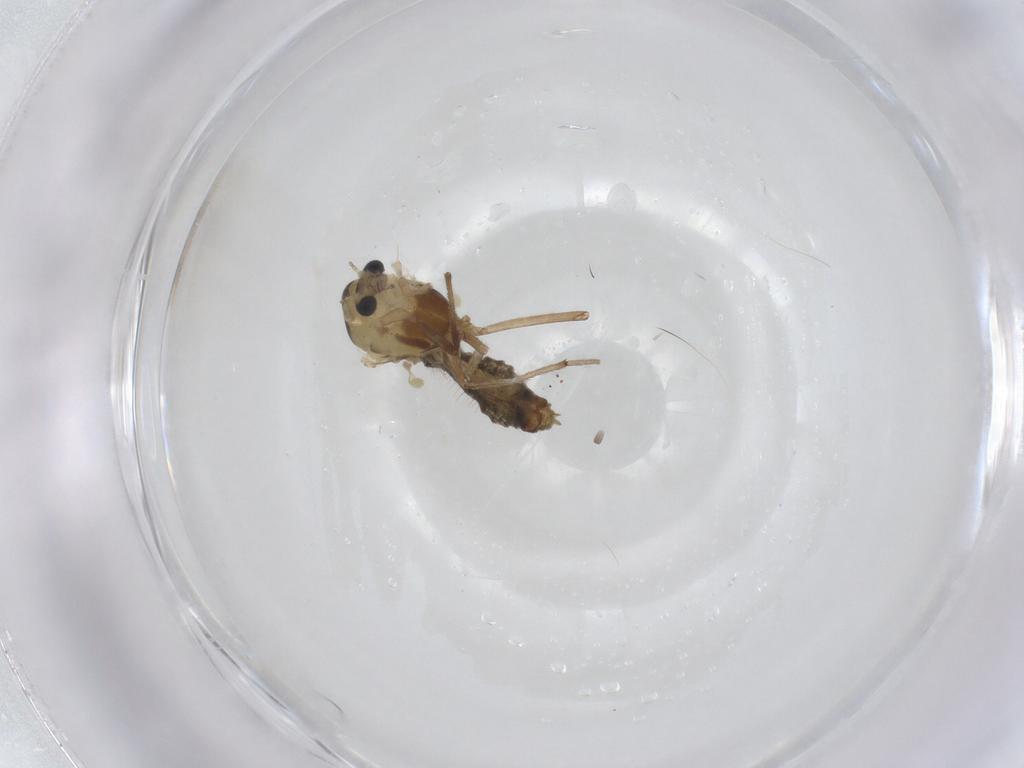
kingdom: Animalia
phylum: Arthropoda
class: Insecta
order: Diptera
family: Chironomidae
